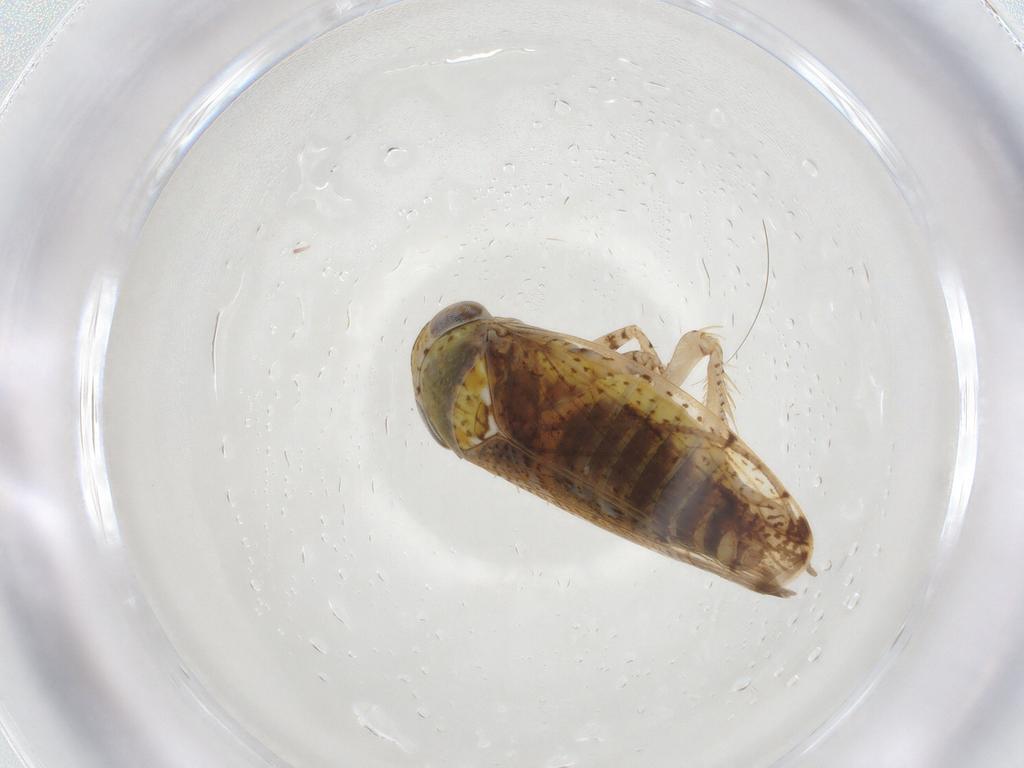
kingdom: Animalia
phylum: Arthropoda
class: Insecta
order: Hemiptera
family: Cicadellidae
